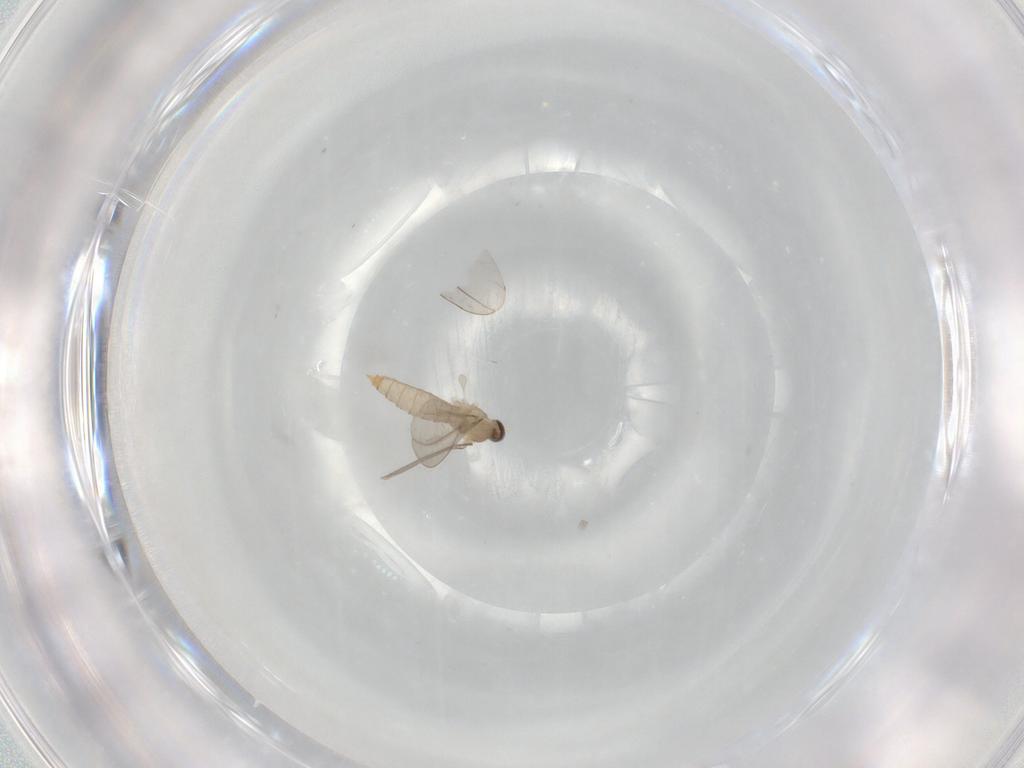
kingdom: Animalia
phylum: Arthropoda
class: Insecta
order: Diptera
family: Cecidomyiidae
